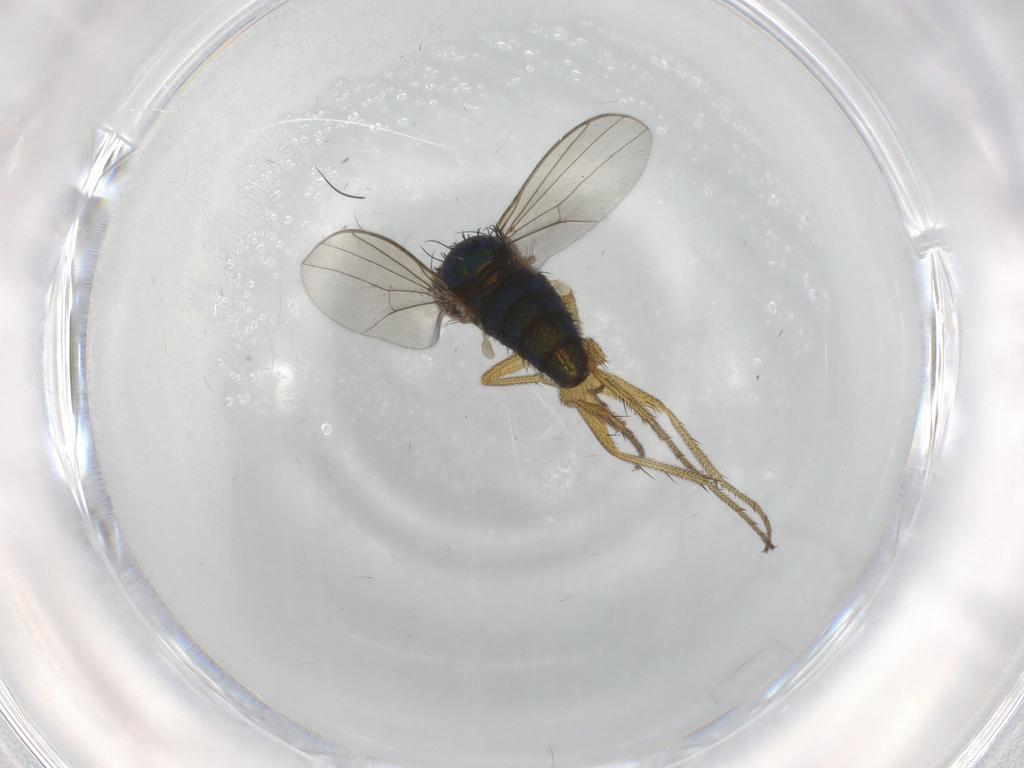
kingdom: Animalia
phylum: Arthropoda
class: Insecta
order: Diptera
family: Dolichopodidae
